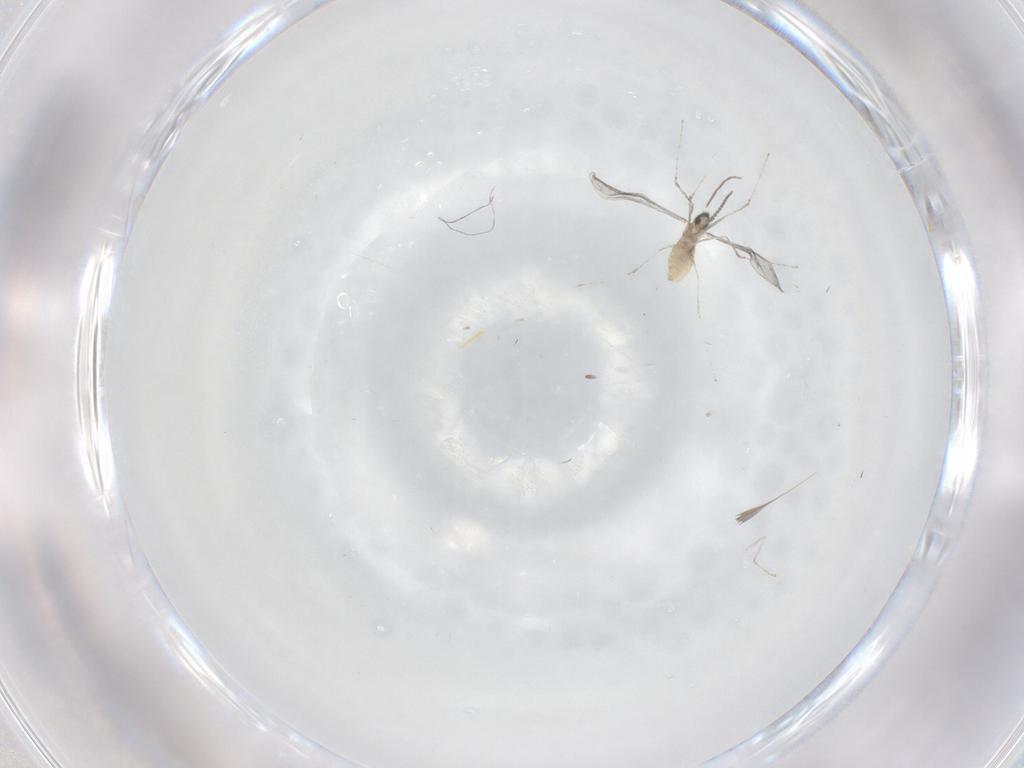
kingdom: Animalia
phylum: Arthropoda
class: Insecta
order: Diptera
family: Cecidomyiidae
